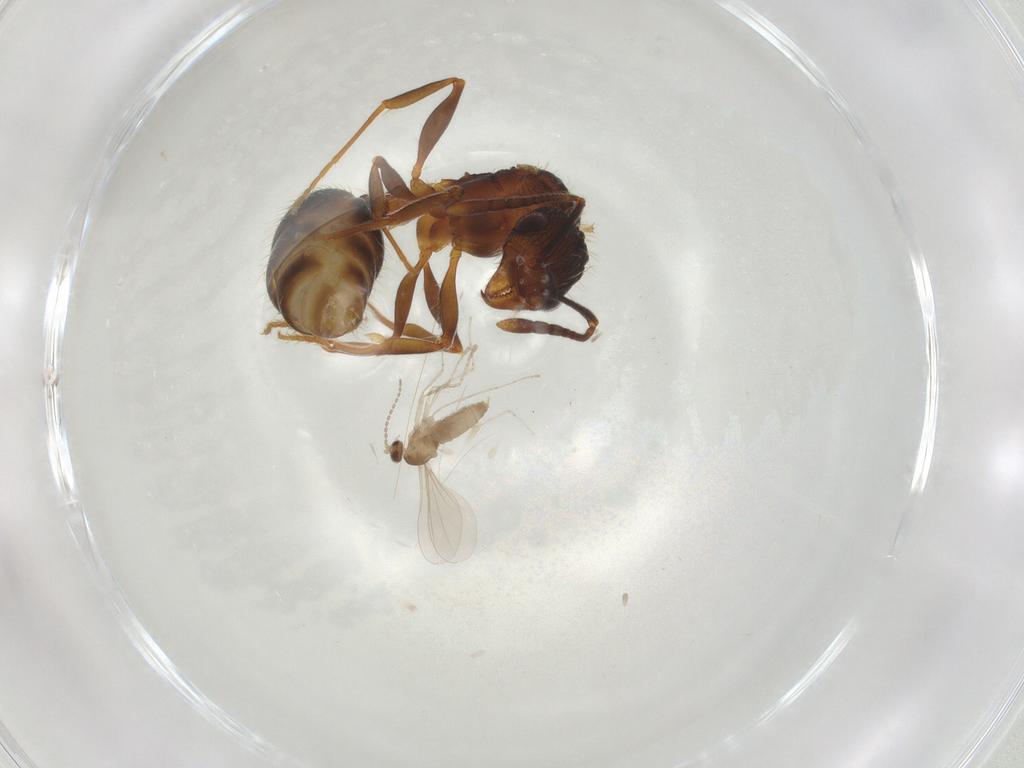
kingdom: Animalia
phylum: Arthropoda
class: Insecta
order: Hymenoptera
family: Formicidae
